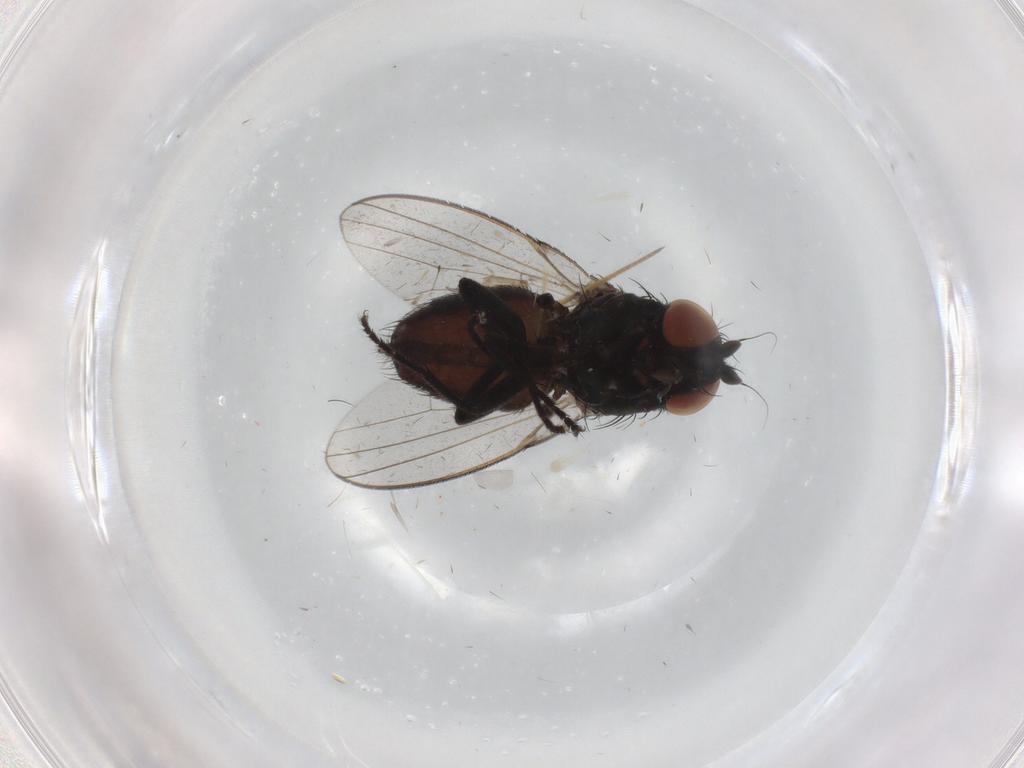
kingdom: Animalia
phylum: Arthropoda
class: Insecta
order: Diptera
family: Milichiidae
